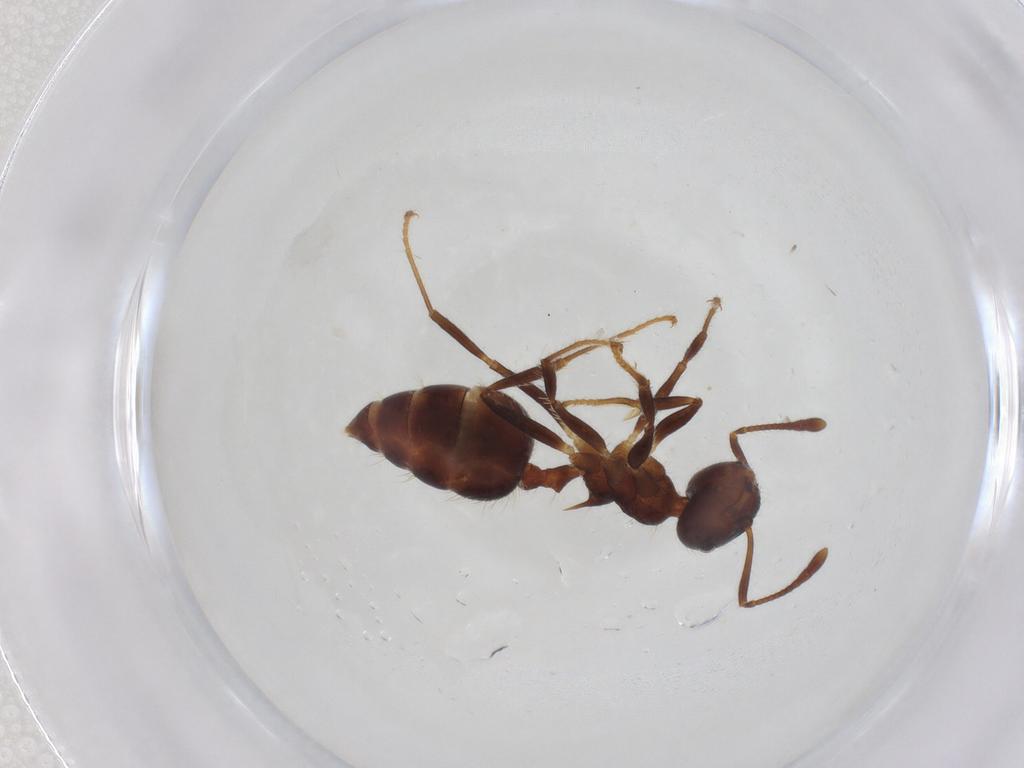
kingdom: Animalia
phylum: Arthropoda
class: Insecta
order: Hymenoptera
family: Formicidae
